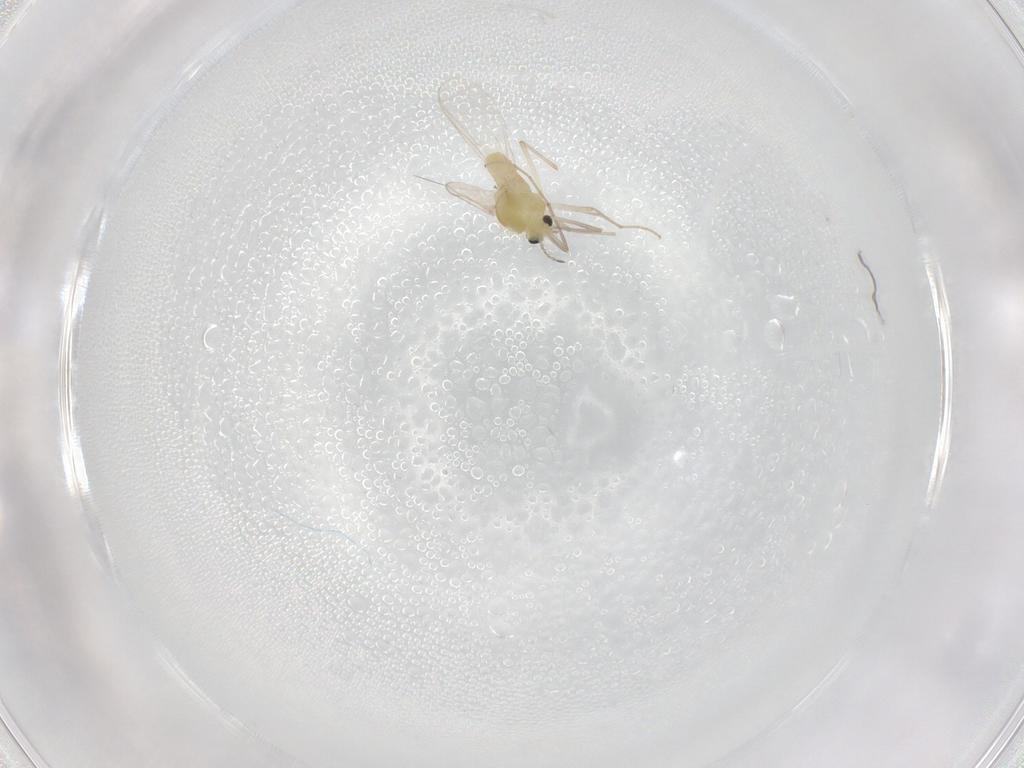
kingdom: Animalia
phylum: Arthropoda
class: Insecta
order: Diptera
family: Chironomidae
